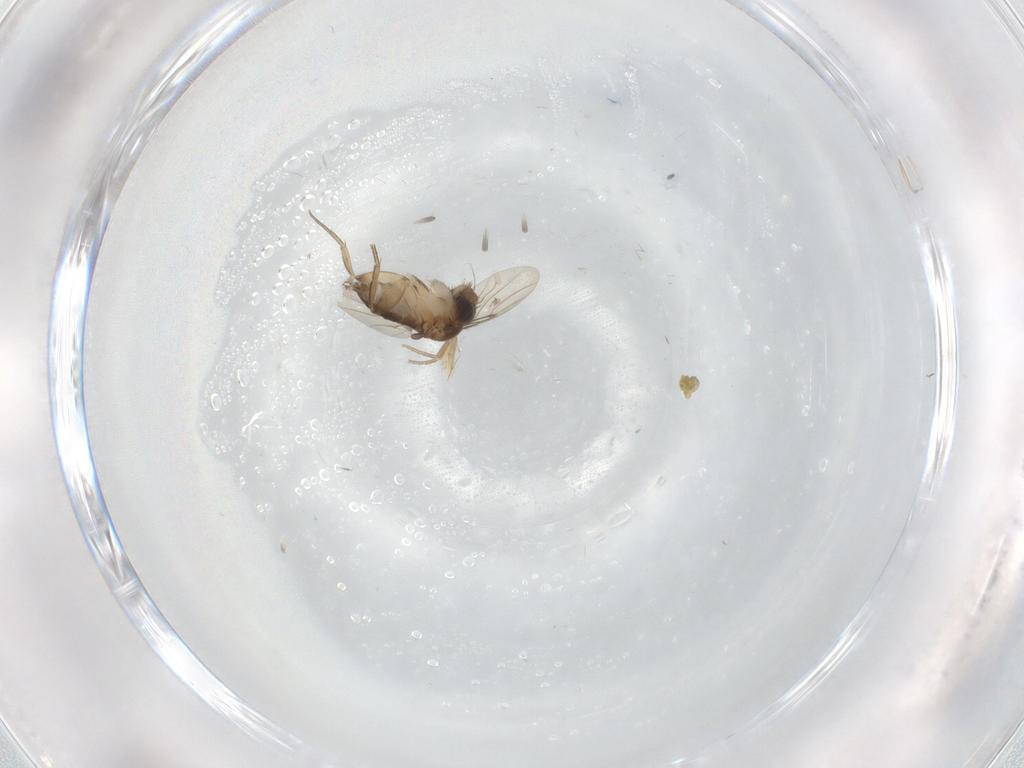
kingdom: Animalia
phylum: Arthropoda
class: Insecta
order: Diptera
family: Phoridae
